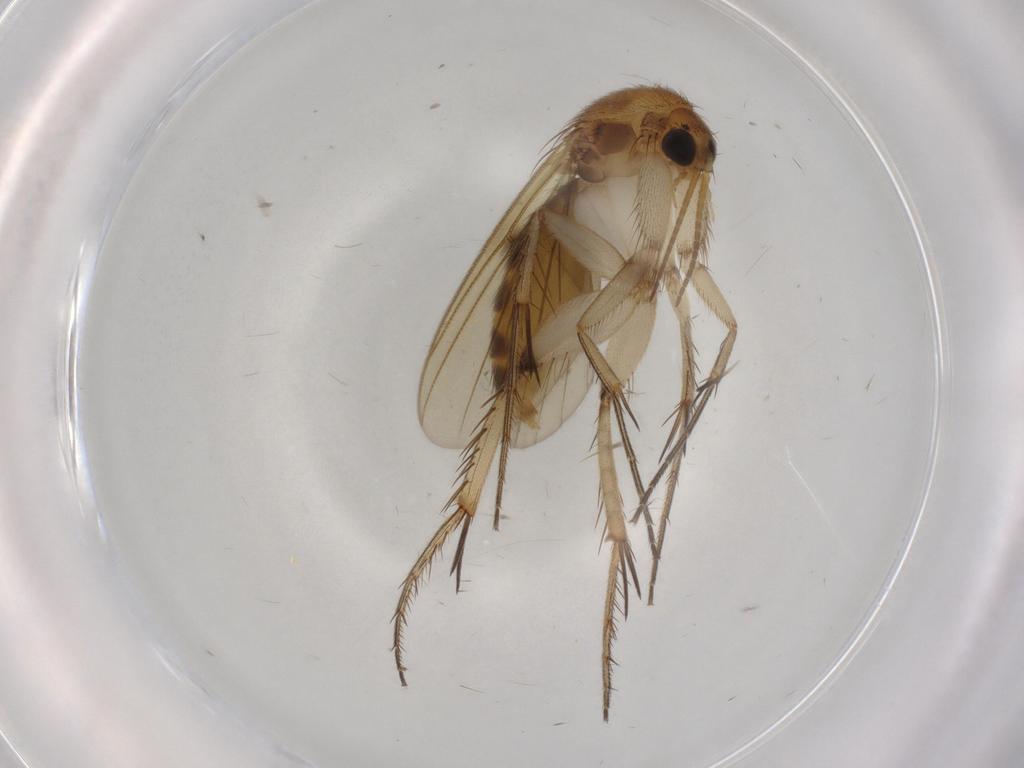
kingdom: Animalia
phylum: Arthropoda
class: Insecta
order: Diptera
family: Mycetophilidae
